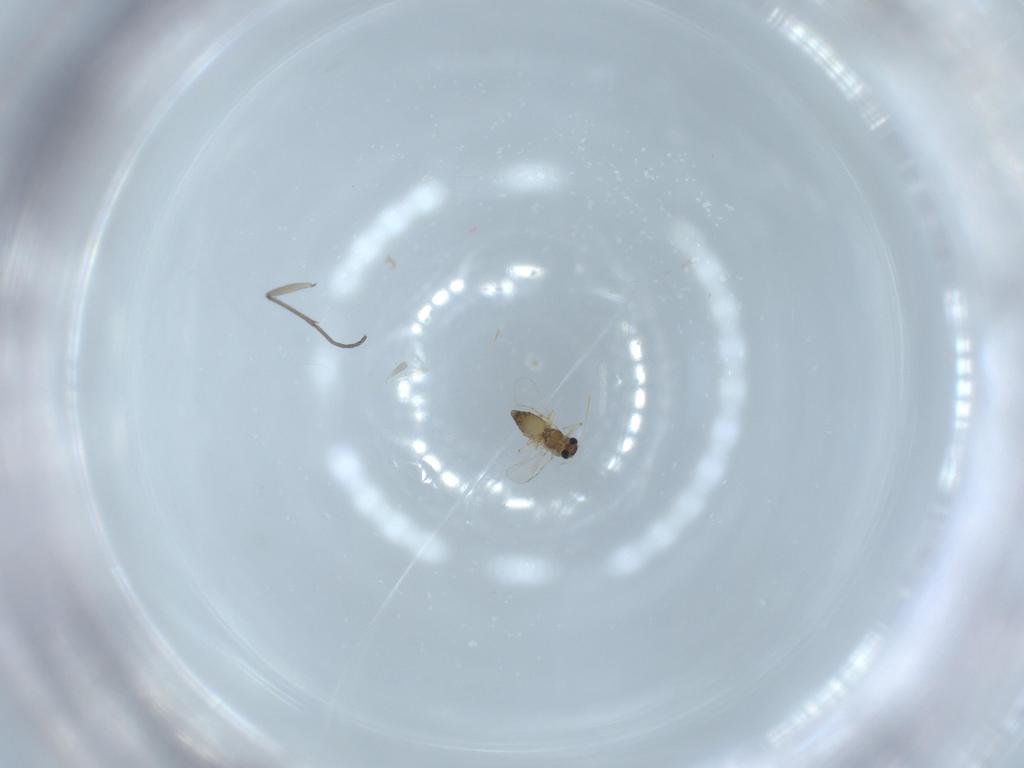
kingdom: Animalia
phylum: Arthropoda
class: Insecta
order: Diptera
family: Chironomidae
